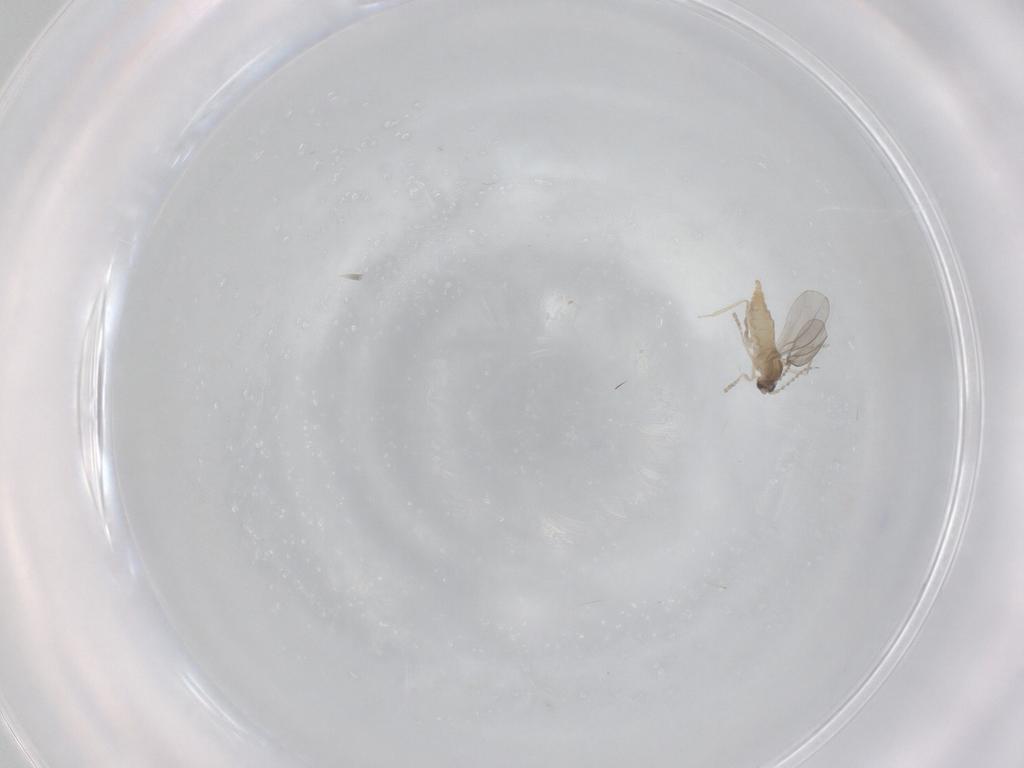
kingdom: Animalia
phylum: Arthropoda
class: Insecta
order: Diptera
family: Cecidomyiidae
